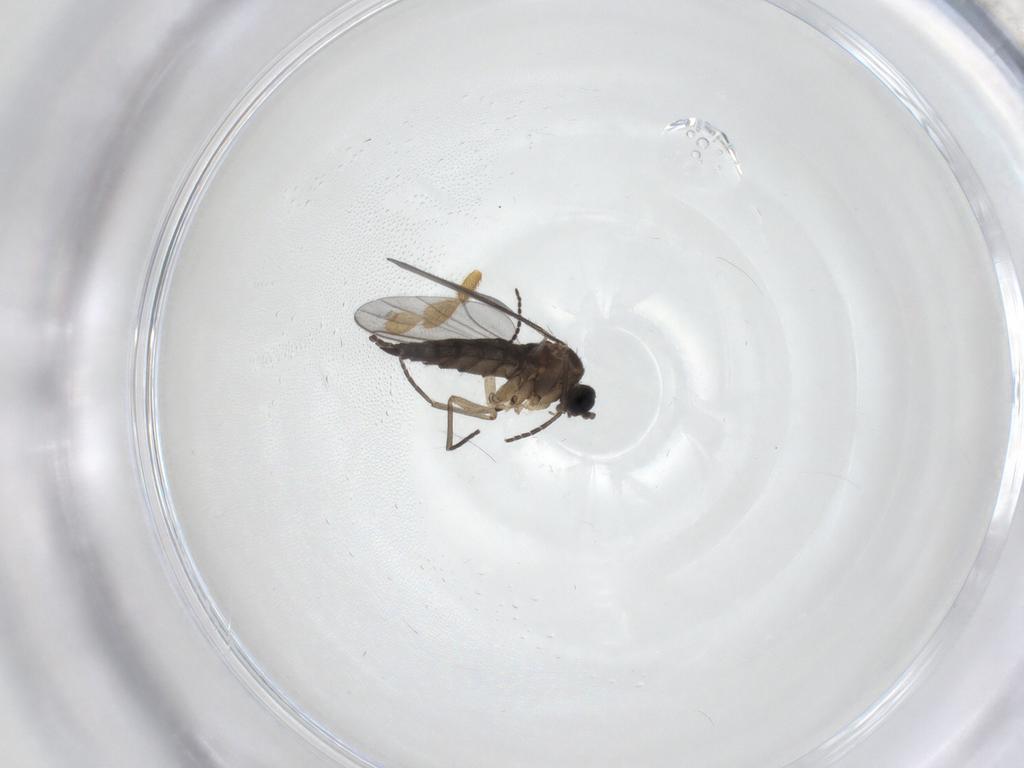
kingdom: Animalia
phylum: Arthropoda
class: Insecta
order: Diptera
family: Sciaridae
